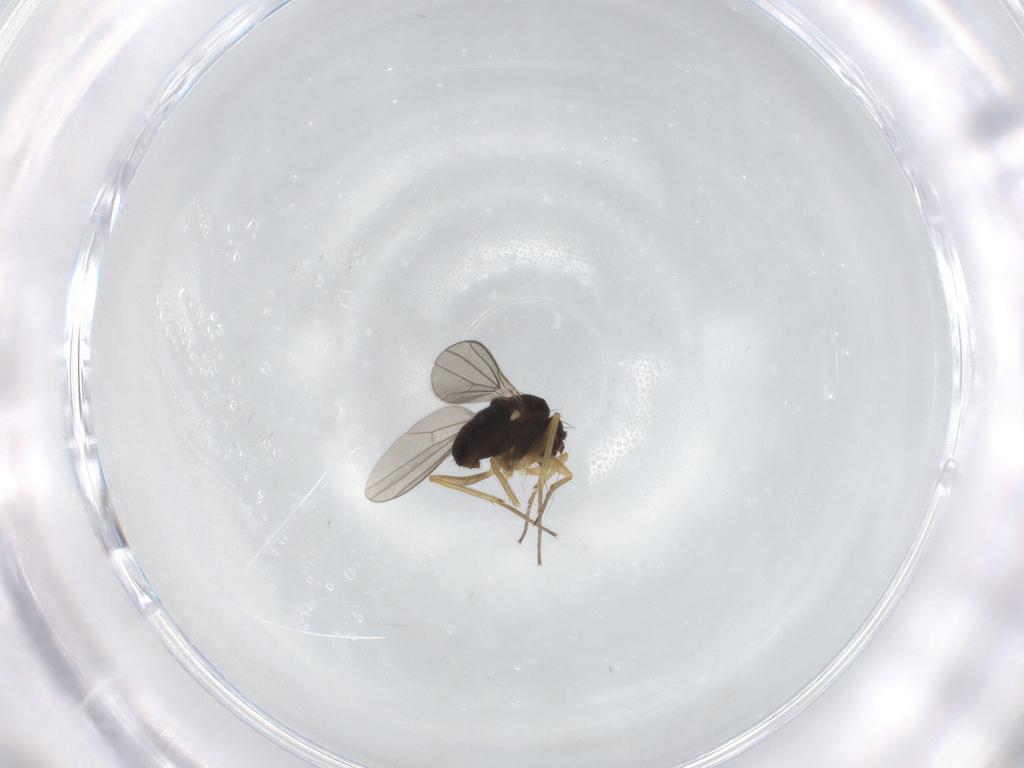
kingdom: Animalia
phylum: Arthropoda
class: Insecta
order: Diptera
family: Dolichopodidae
